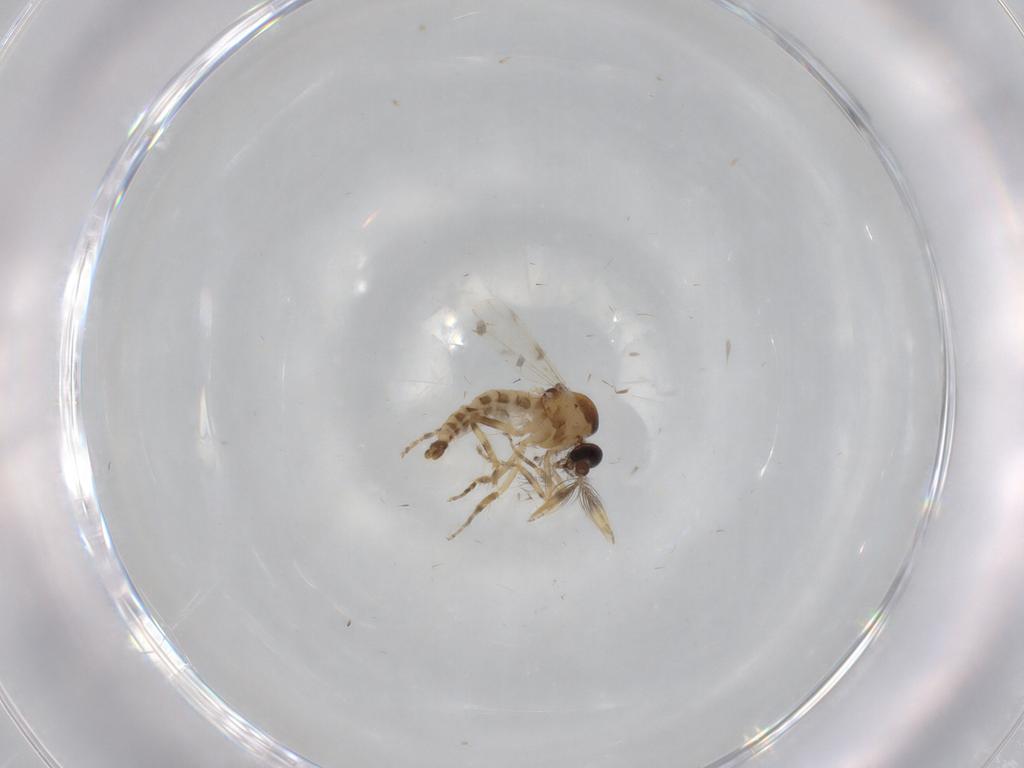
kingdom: Animalia
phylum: Arthropoda
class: Insecta
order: Diptera
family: Ceratopogonidae
